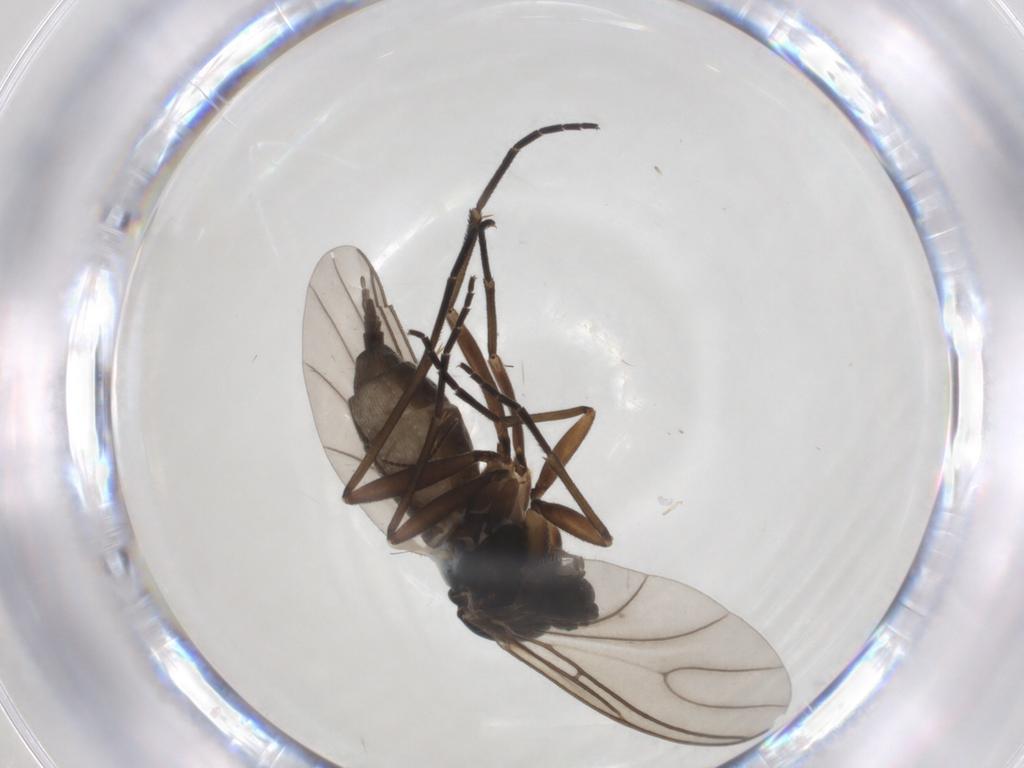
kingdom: Animalia
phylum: Arthropoda
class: Insecta
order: Diptera
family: Sciaridae
